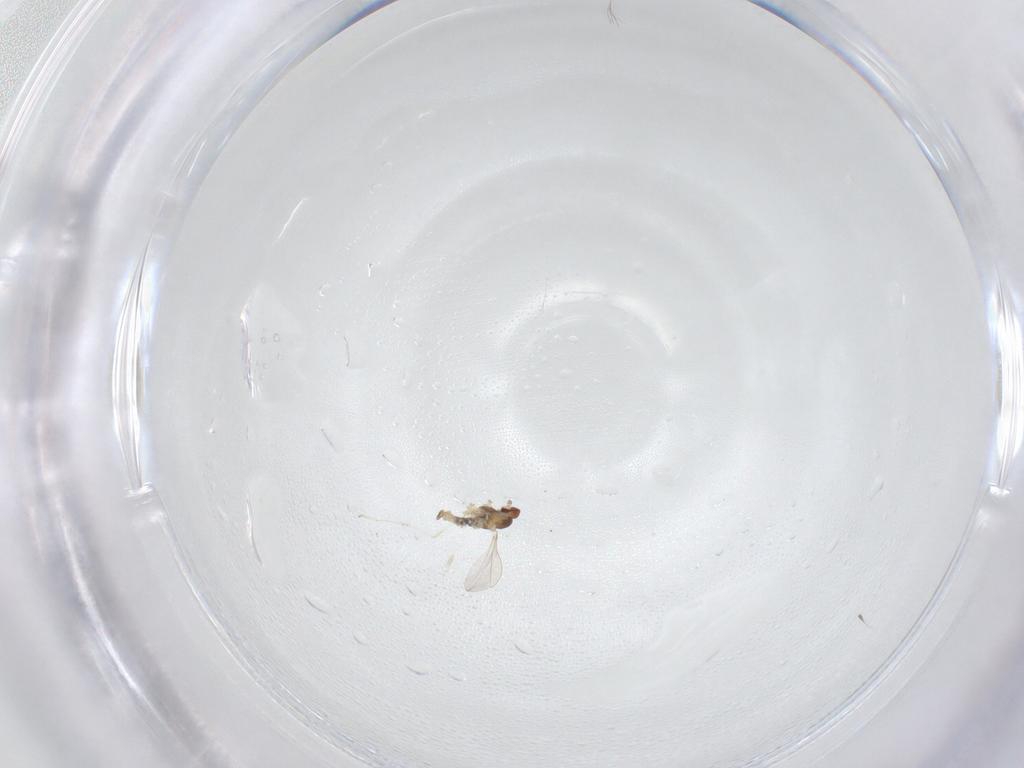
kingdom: Animalia
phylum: Arthropoda
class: Insecta
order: Diptera
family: Cecidomyiidae
